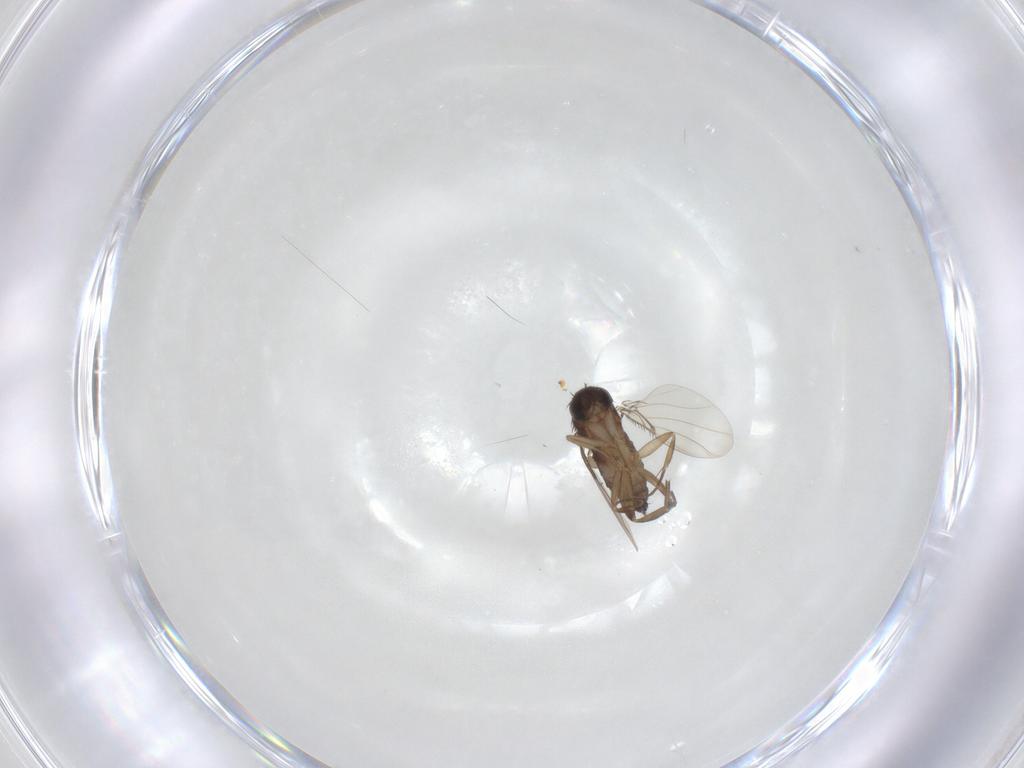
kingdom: Animalia
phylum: Arthropoda
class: Insecta
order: Diptera
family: Phoridae
